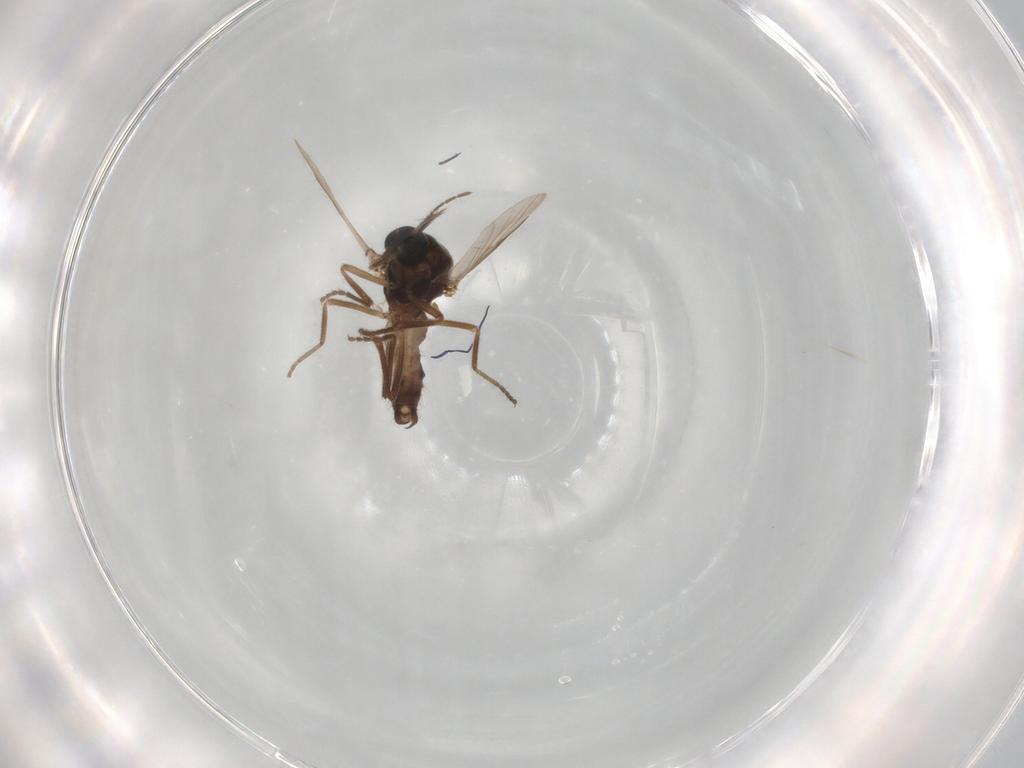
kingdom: Animalia
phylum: Arthropoda
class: Insecta
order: Diptera
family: Ceratopogonidae
